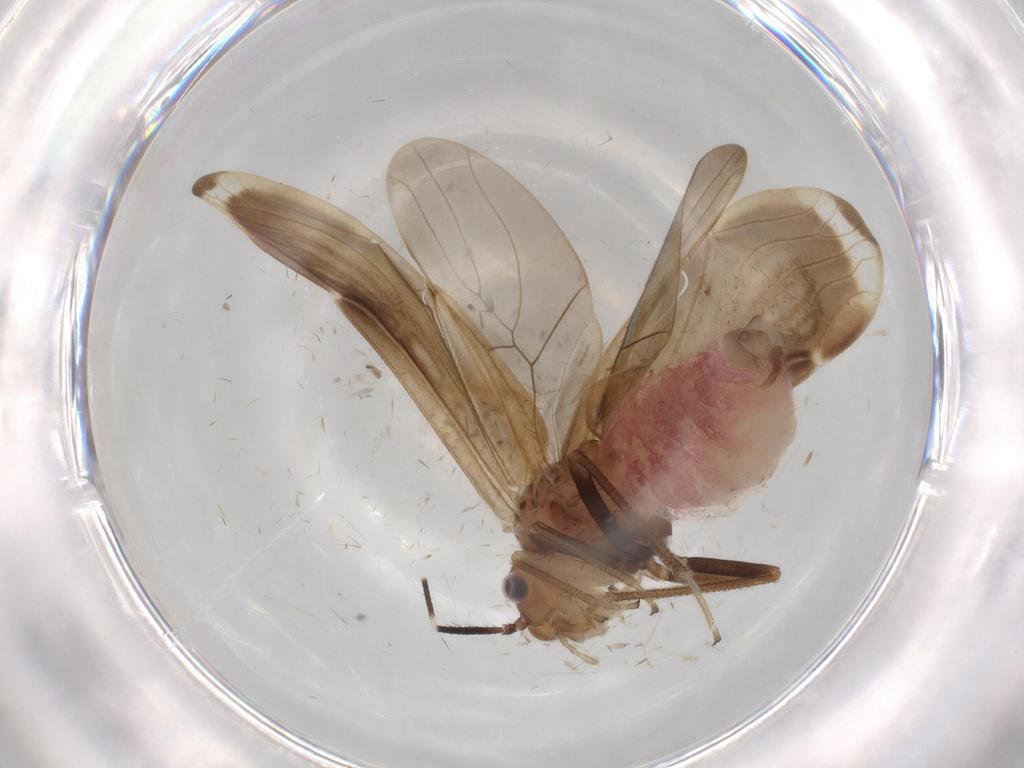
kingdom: Animalia
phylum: Arthropoda
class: Insecta
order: Psocodea
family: Amphipsocidae
